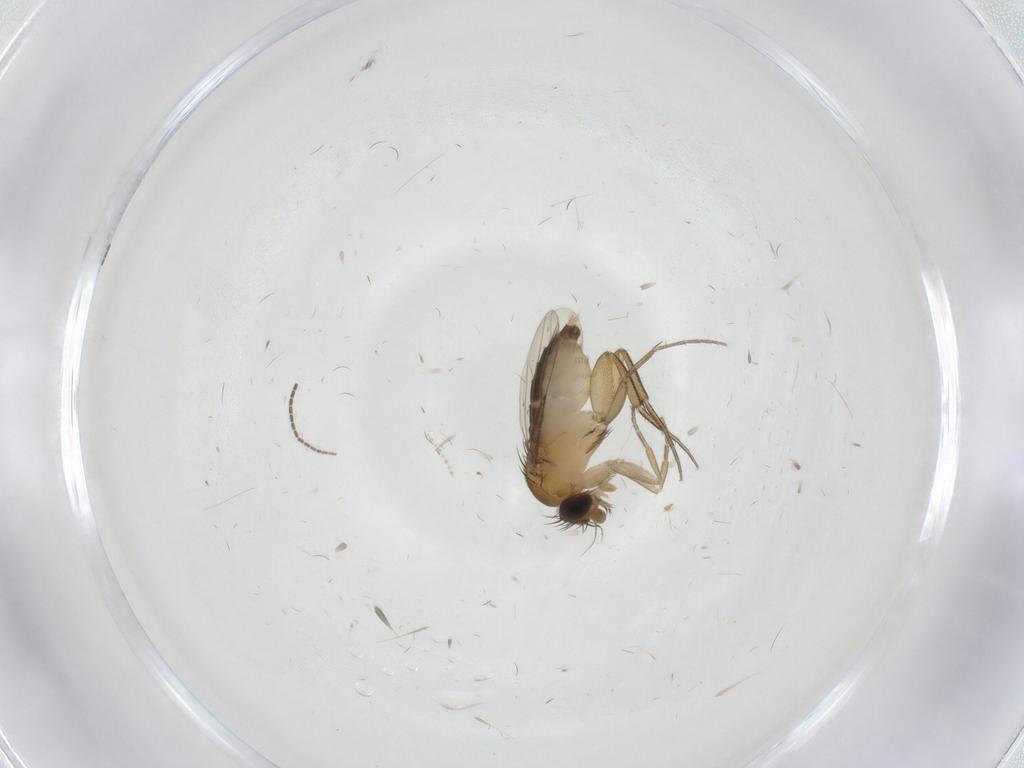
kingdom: Animalia
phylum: Arthropoda
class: Insecta
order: Diptera
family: Phoridae
